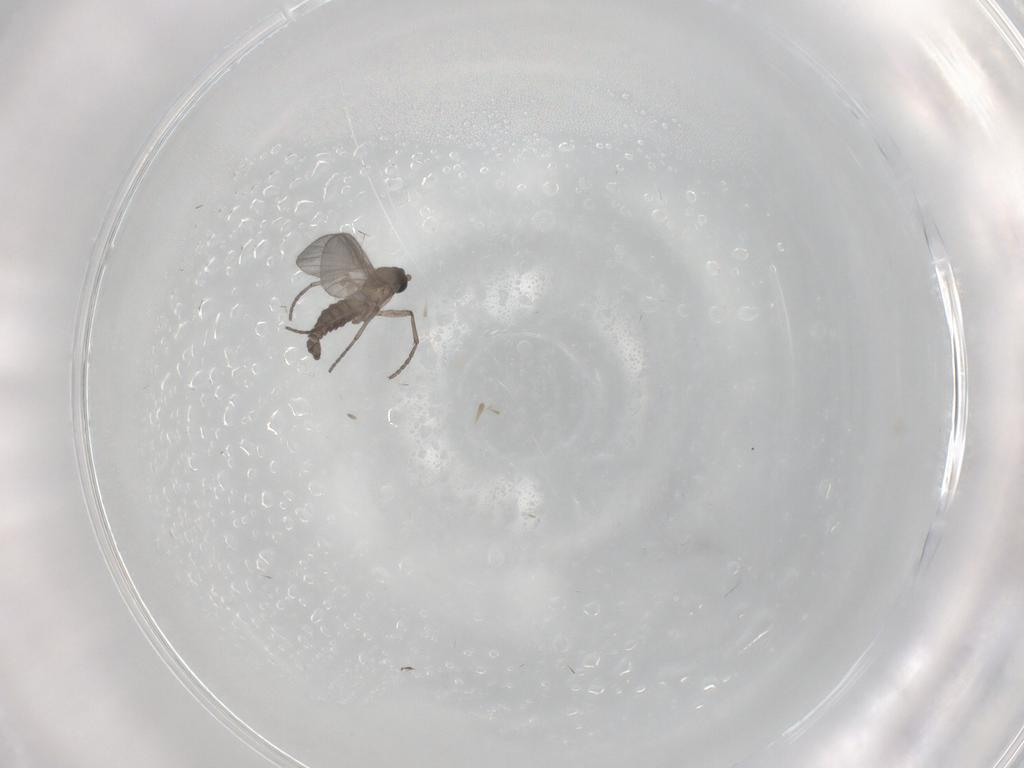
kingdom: Animalia
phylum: Arthropoda
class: Insecta
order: Diptera
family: Sciaridae
